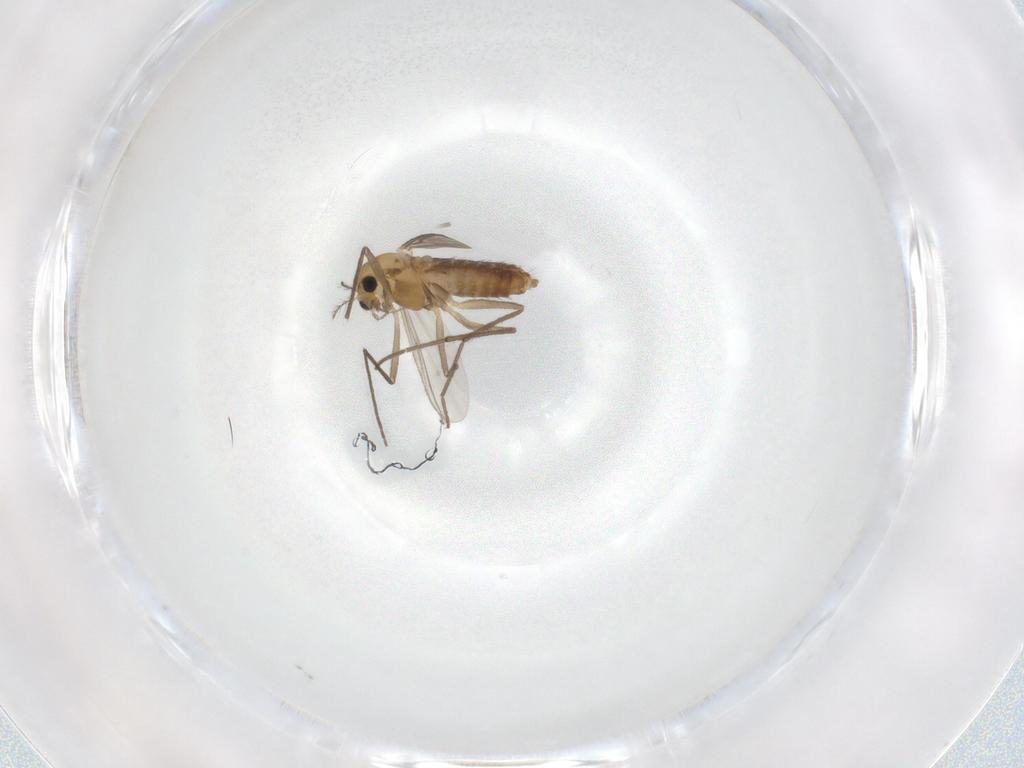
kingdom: Animalia
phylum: Arthropoda
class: Insecta
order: Diptera
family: Chironomidae
